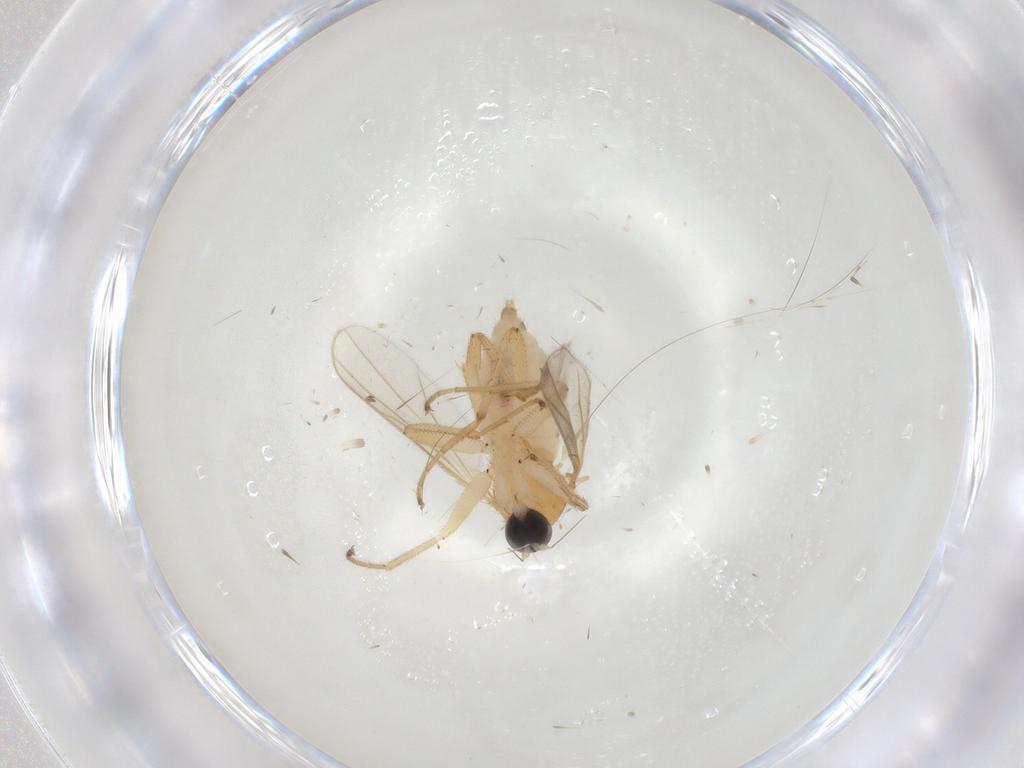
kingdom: Animalia
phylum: Arthropoda
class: Insecta
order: Diptera
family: Hybotidae
